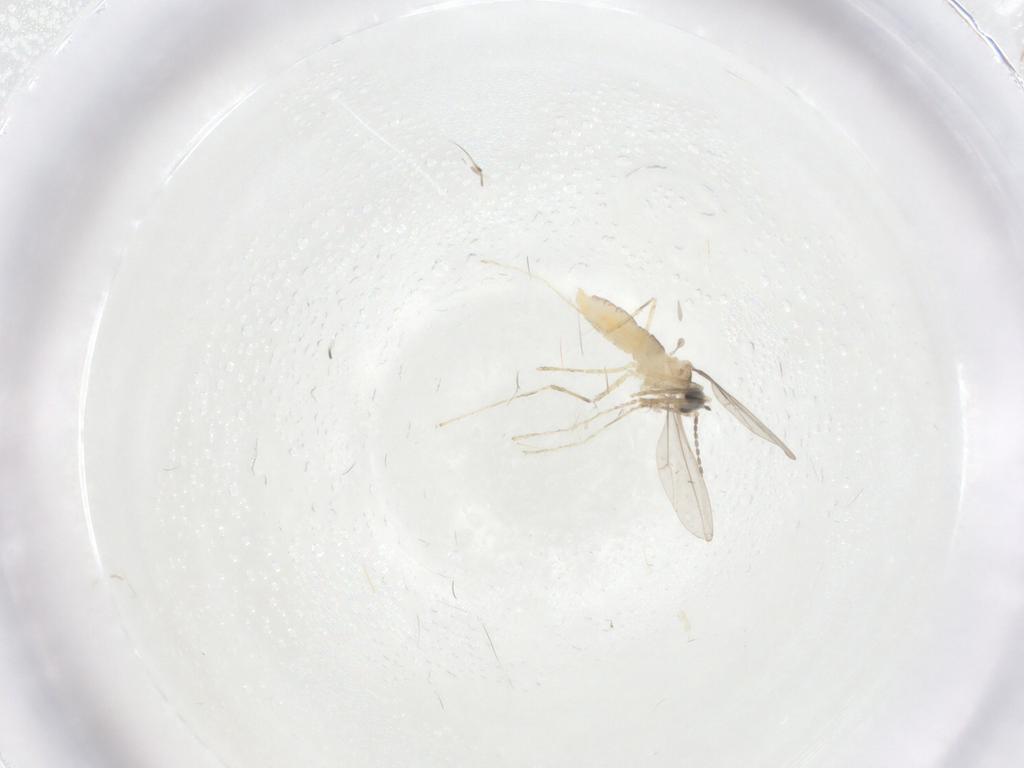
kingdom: Animalia
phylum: Arthropoda
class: Insecta
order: Diptera
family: Cecidomyiidae
